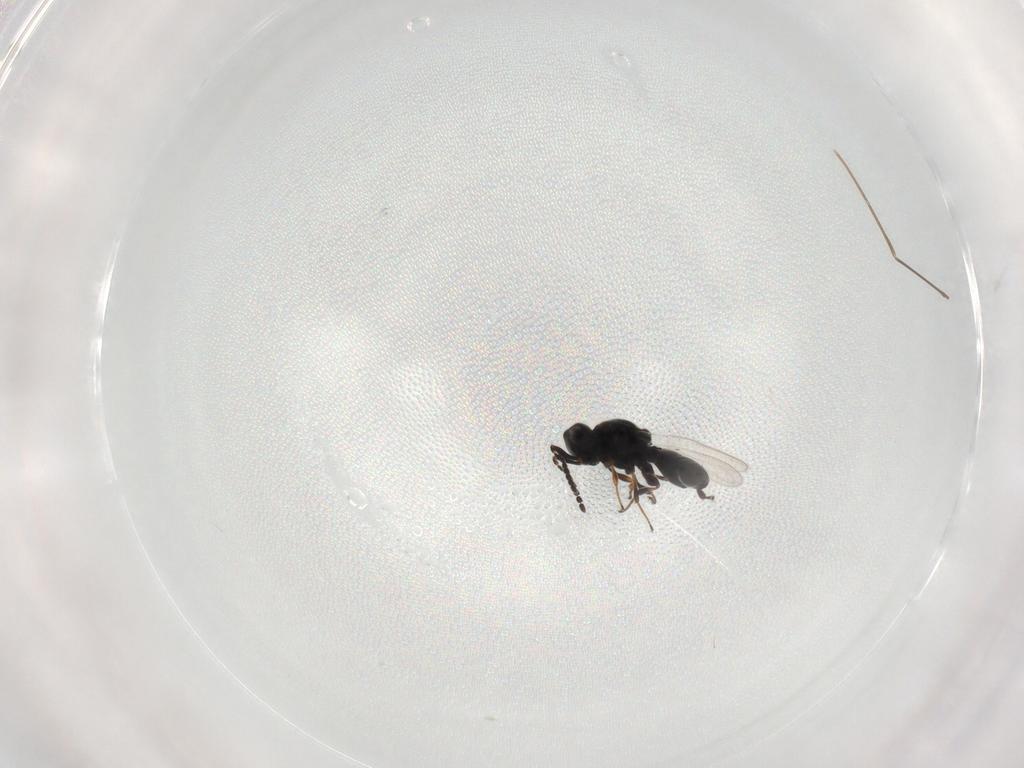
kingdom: Animalia
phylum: Arthropoda
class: Insecta
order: Hymenoptera
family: Platygastridae
